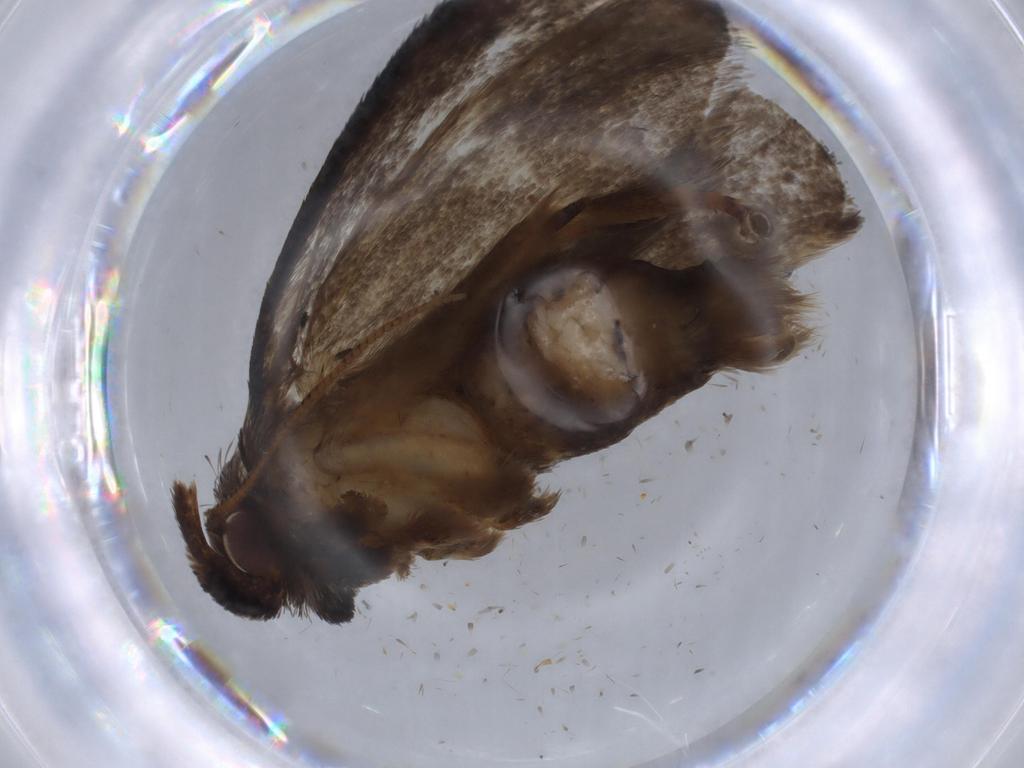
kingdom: Animalia
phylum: Arthropoda
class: Insecta
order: Lepidoptera
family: Tineidae
